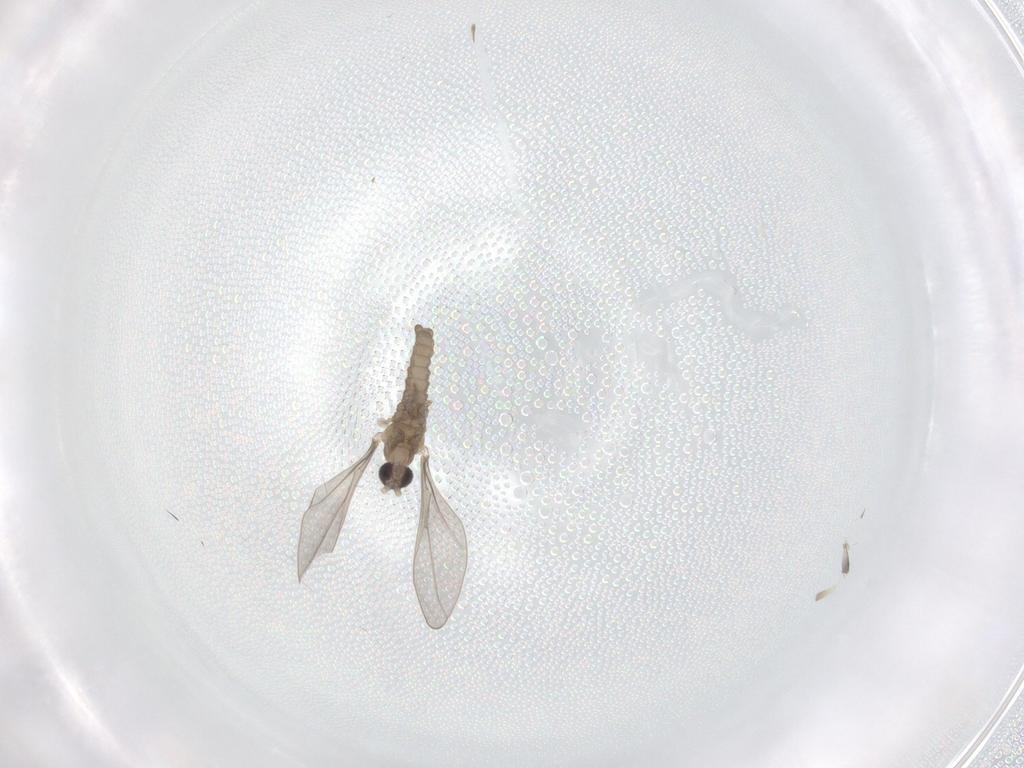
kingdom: Animalia
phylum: Arthropoda
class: Insecta
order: Diptera
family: Cecidomyiidae
